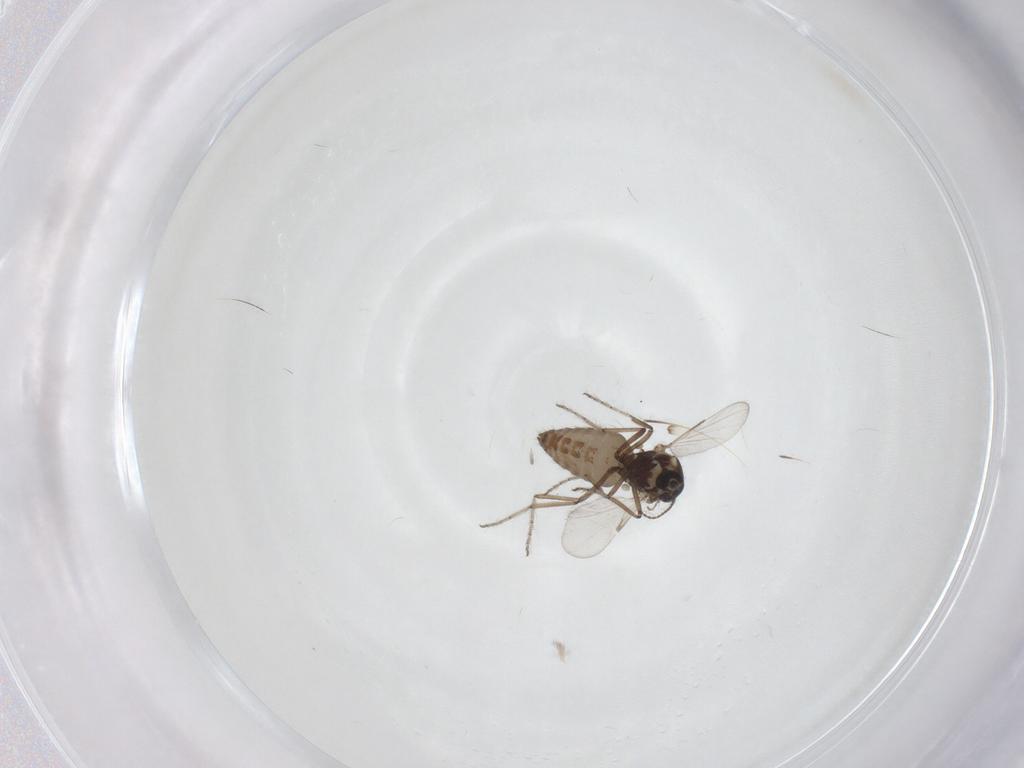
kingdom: Animalia
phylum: Arthropoda
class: Insecta
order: Diptera
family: Ceratopogonidae
